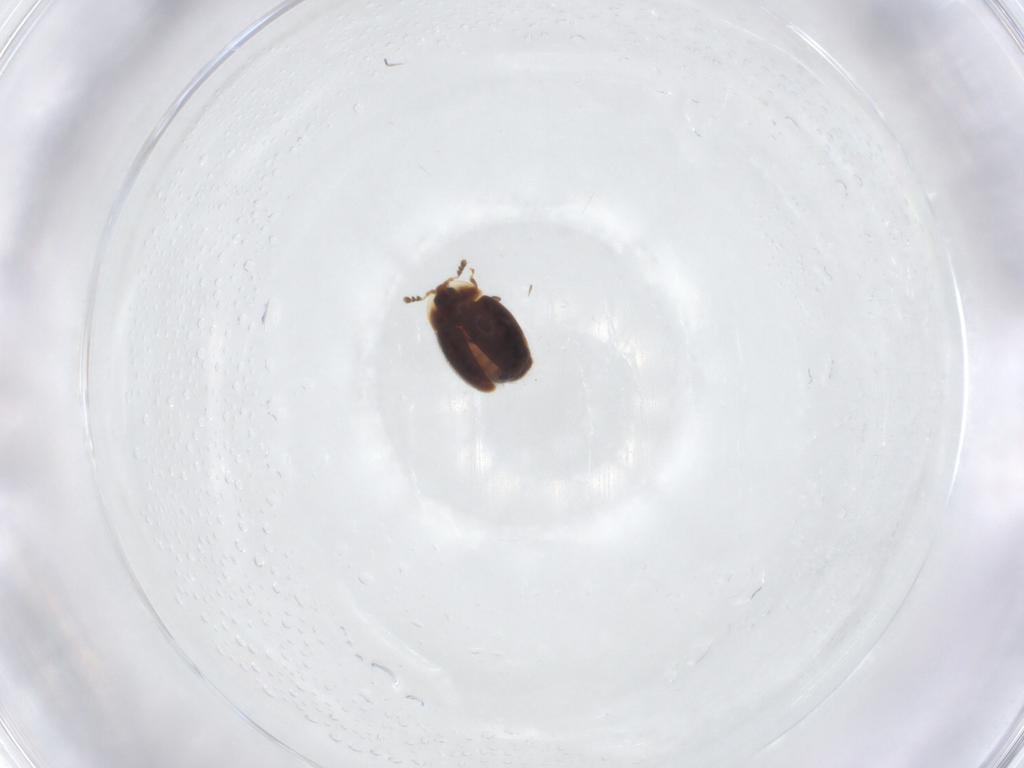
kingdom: Animalia
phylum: Arthropoda
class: Insecta
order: Coleoptera
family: Corylophidae
